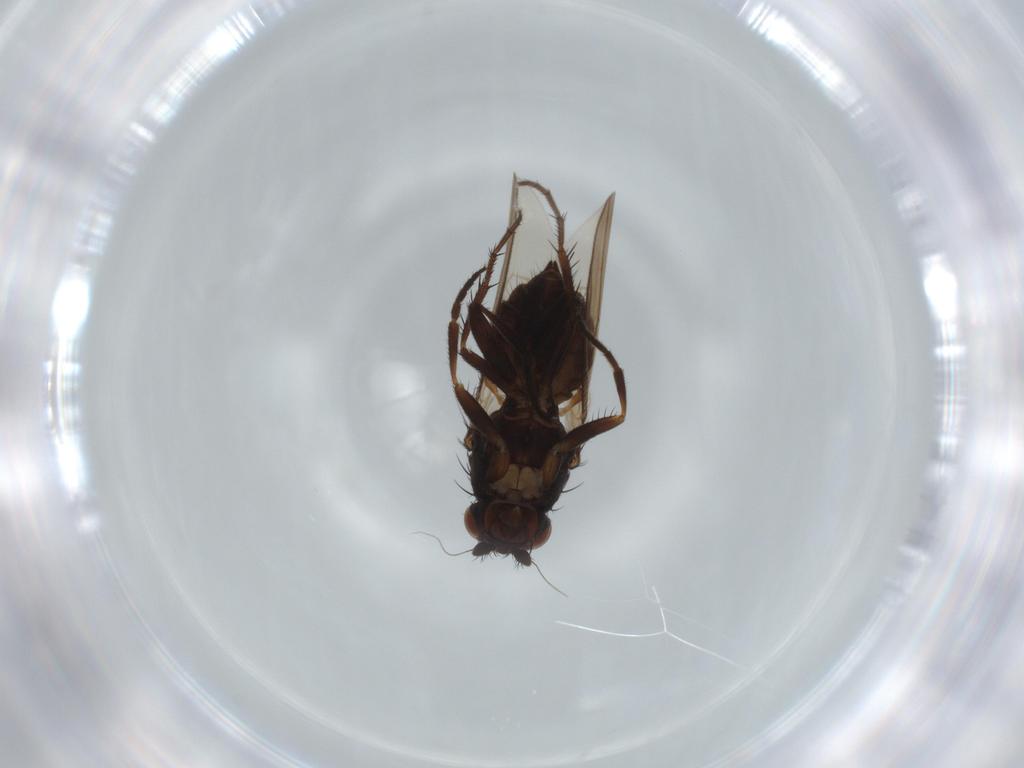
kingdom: Animalia
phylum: Arthropoda
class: Insecta
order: Diptera
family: Sphaeroceridae
